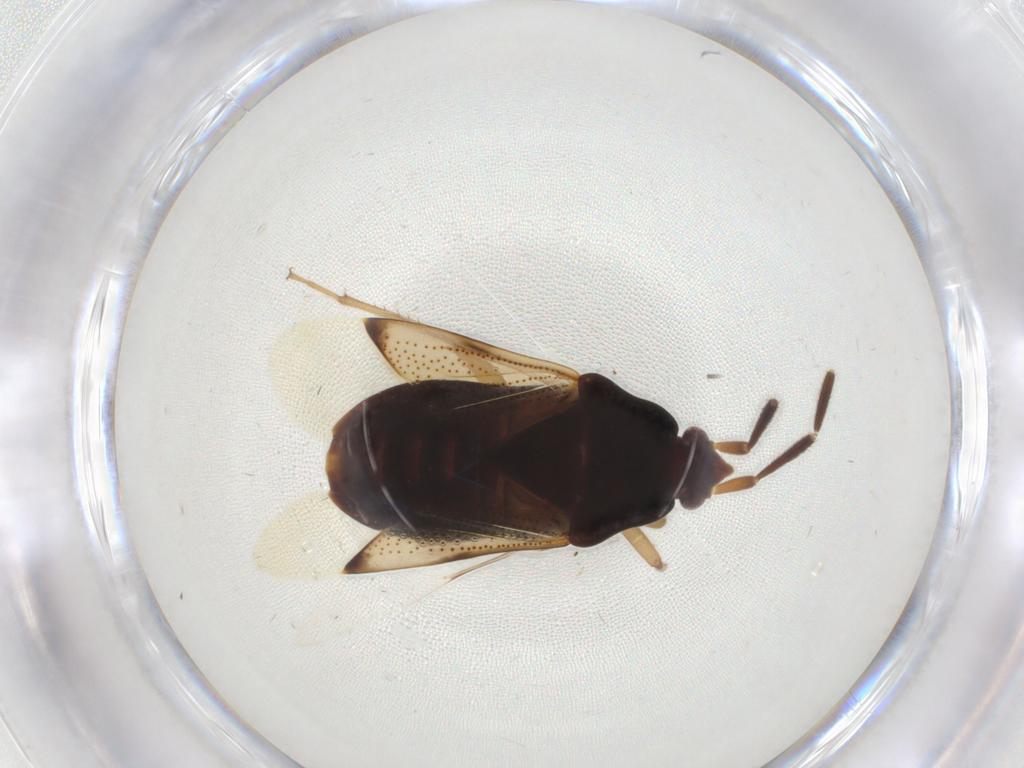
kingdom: Animalia
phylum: Arthropoda
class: Insecta
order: Hemiptera
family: Rhyparochromidae
